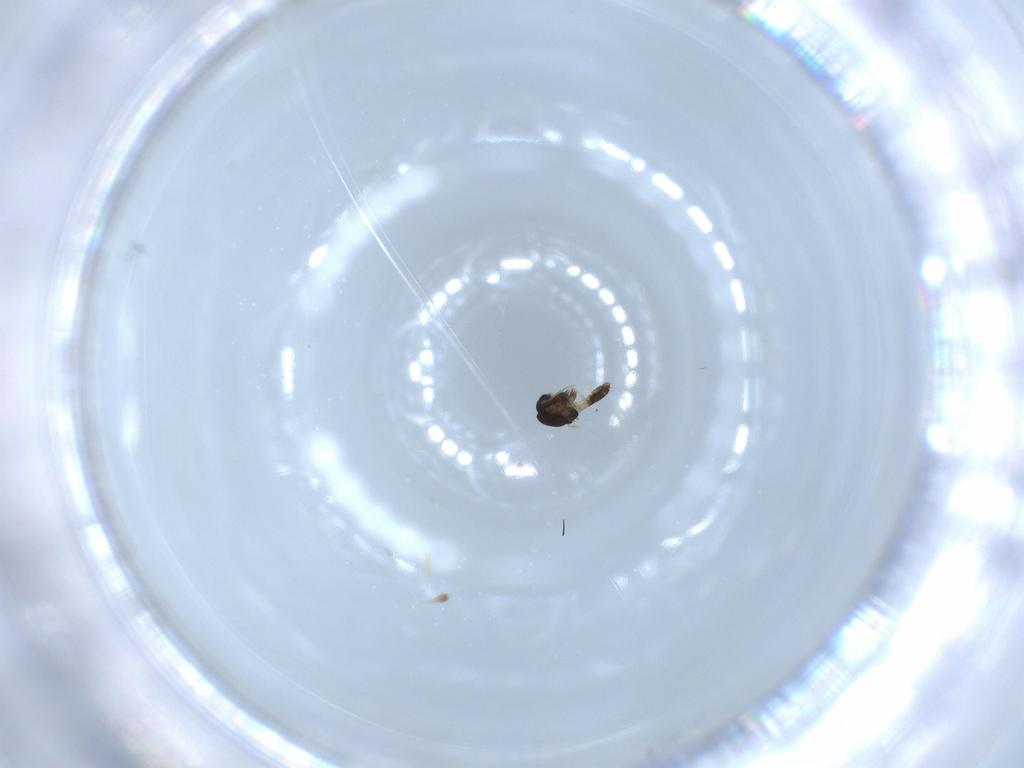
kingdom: Animalia
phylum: Arthropoda
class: Insecta
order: Diptera
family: Chironomidae
